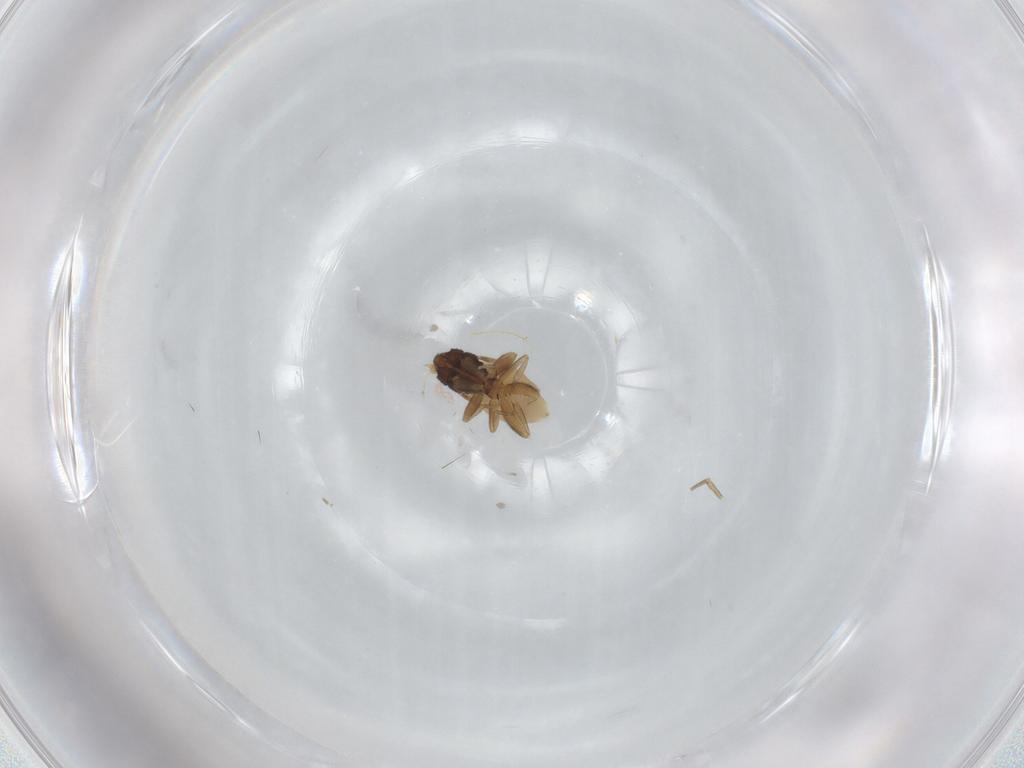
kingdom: Animalia
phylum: Arthropoda
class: Insecta
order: Diptera
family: Phoridae
